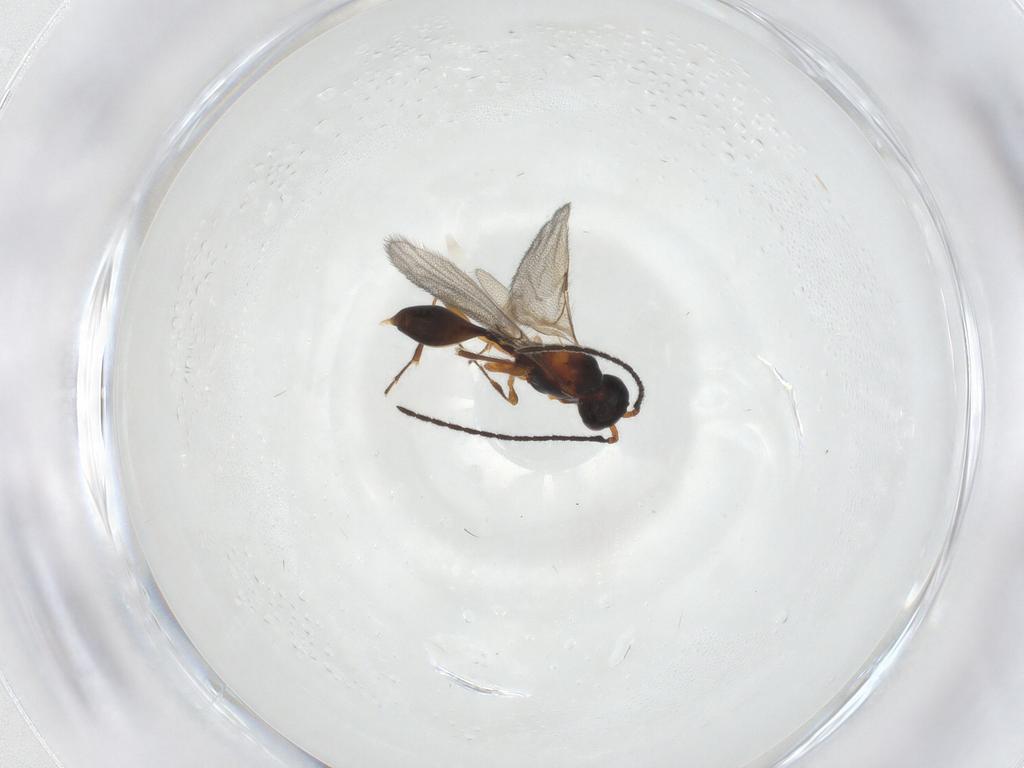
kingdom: Animalia
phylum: Arthropoda
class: Insecta
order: Hymenoptera
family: Diapriidae
